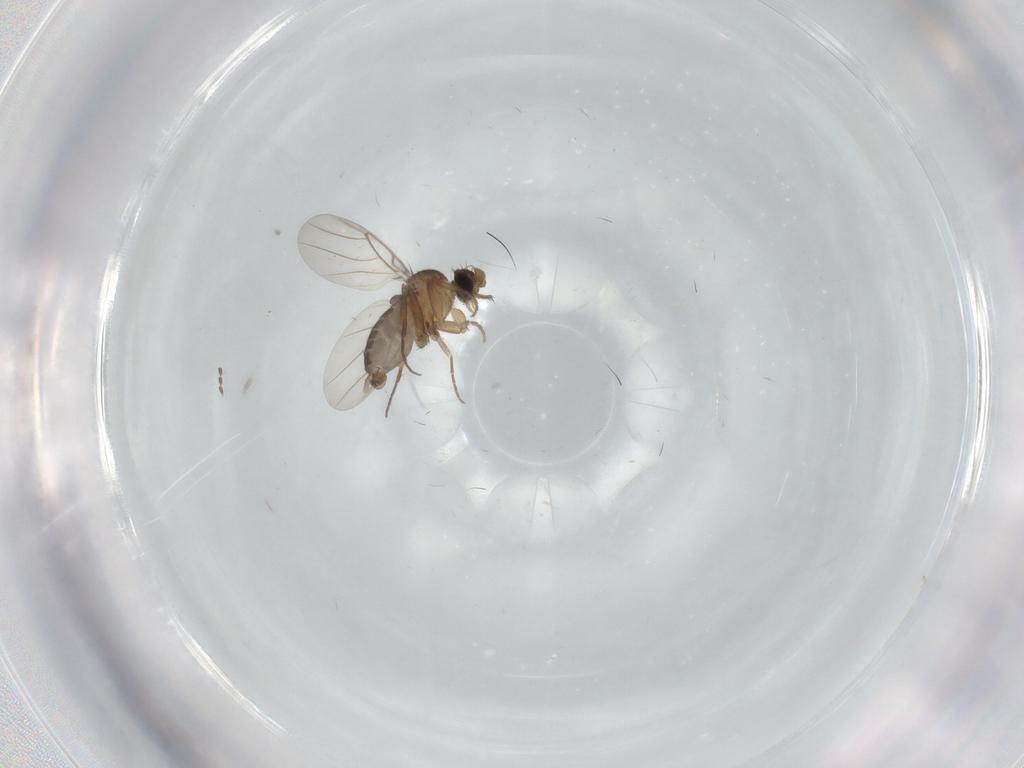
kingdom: Animalia
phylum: Arthropoda
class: Insecta
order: Diptera
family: Phoridae
